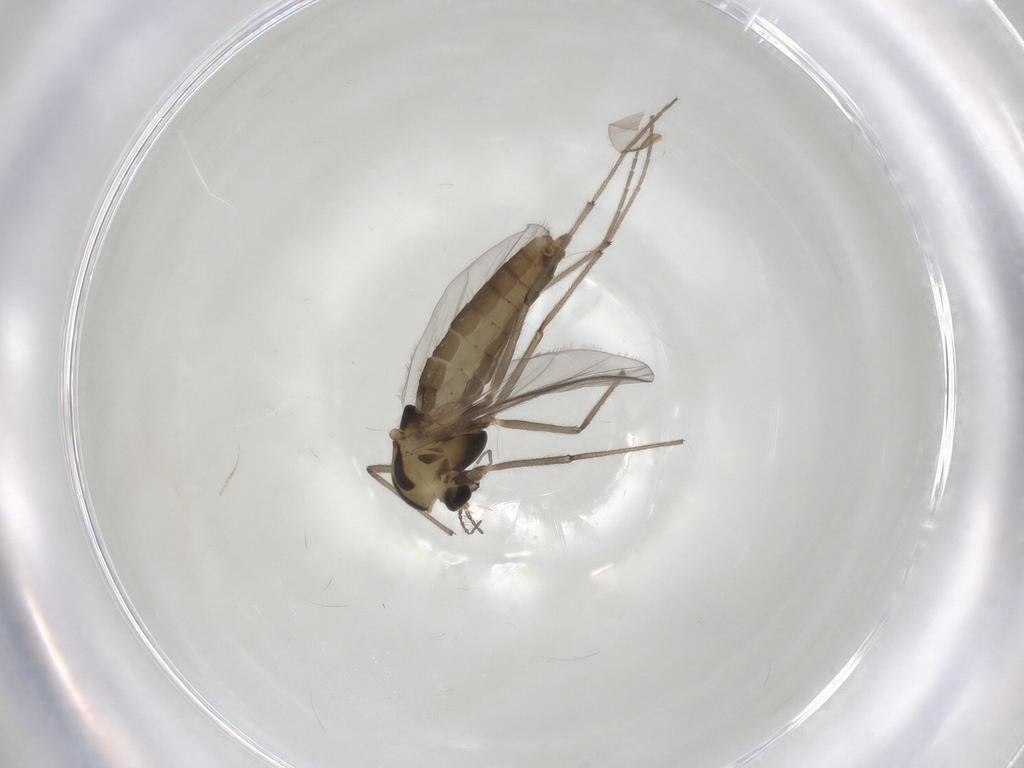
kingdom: Animalia
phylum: Arthropoda
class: Insecta
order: Diptera
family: Chironomidae
